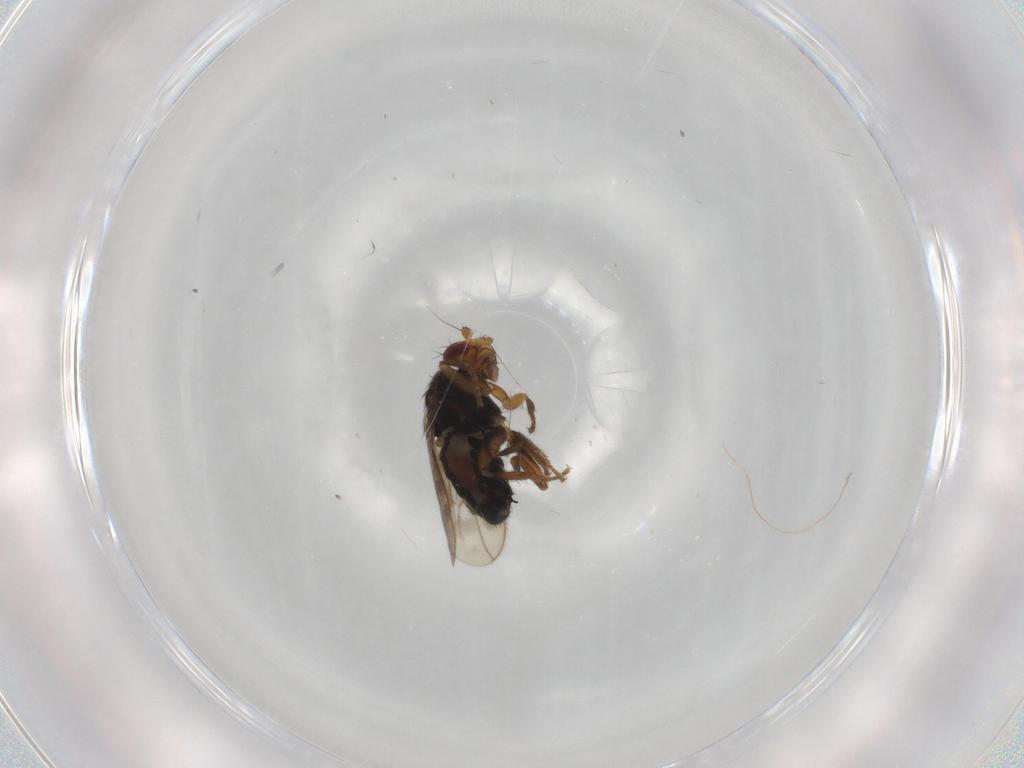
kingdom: Animalia
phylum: Arthropoda
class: Insecta
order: Diptera
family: Sphaeroceridae
